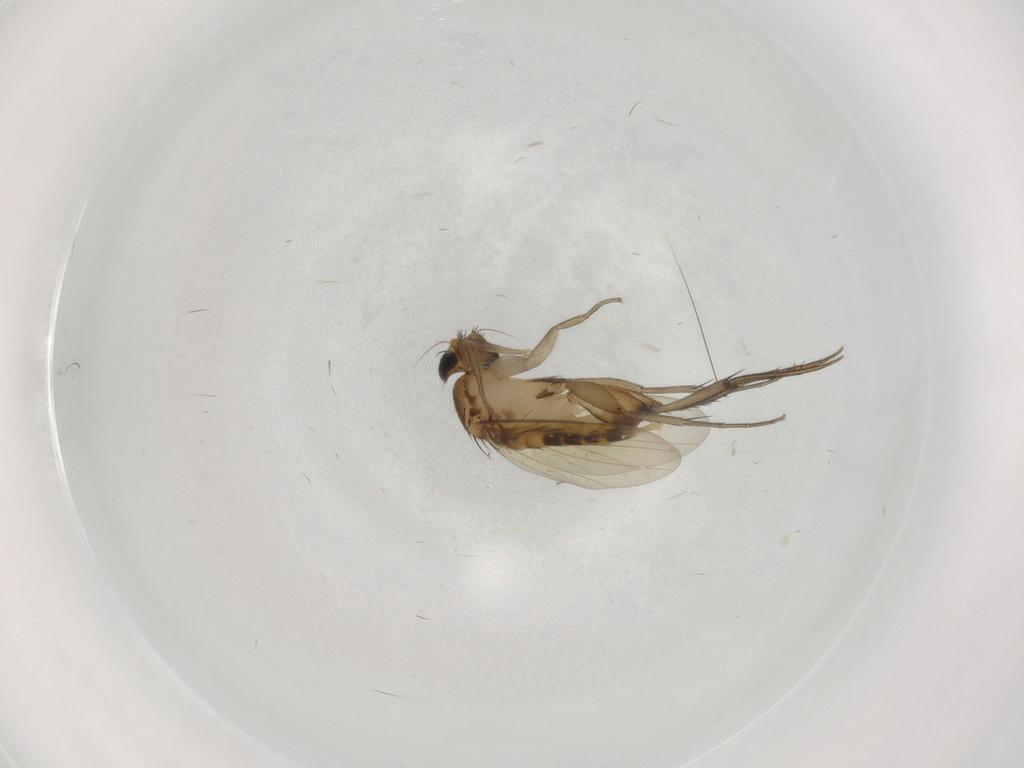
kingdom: Animalia
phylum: Arthropoda
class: Insecta
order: Diptera
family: Phoridae
